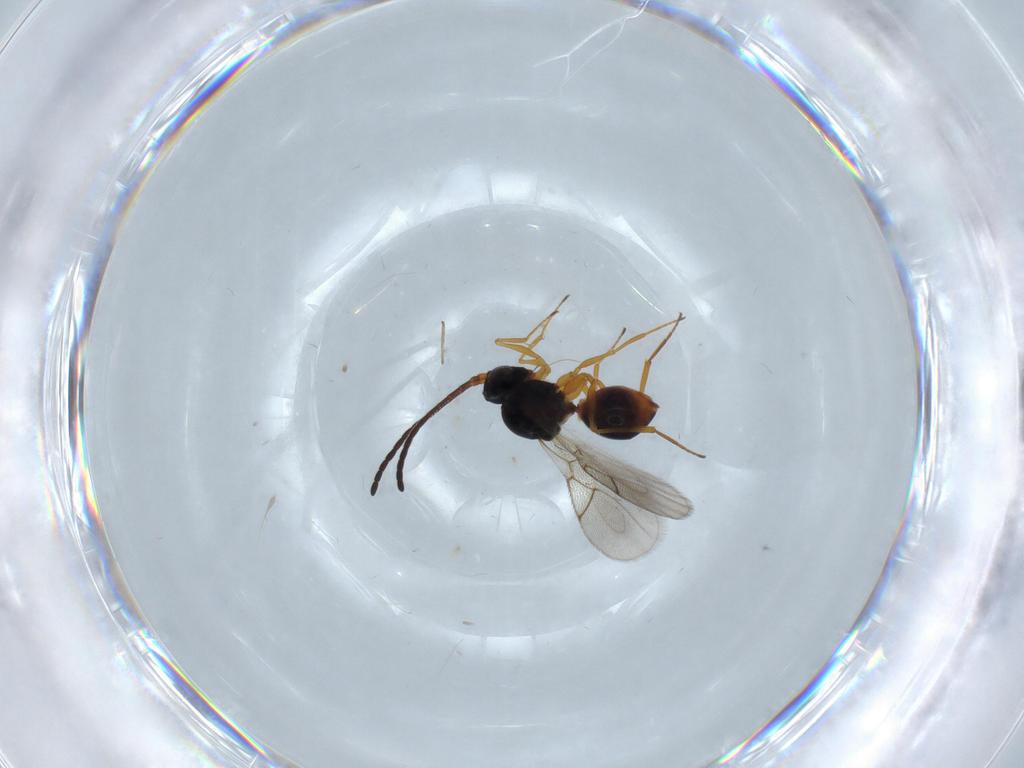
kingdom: Animalia
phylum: Arthropoda
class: Insecta
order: Hymenoptera
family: Figitidae
